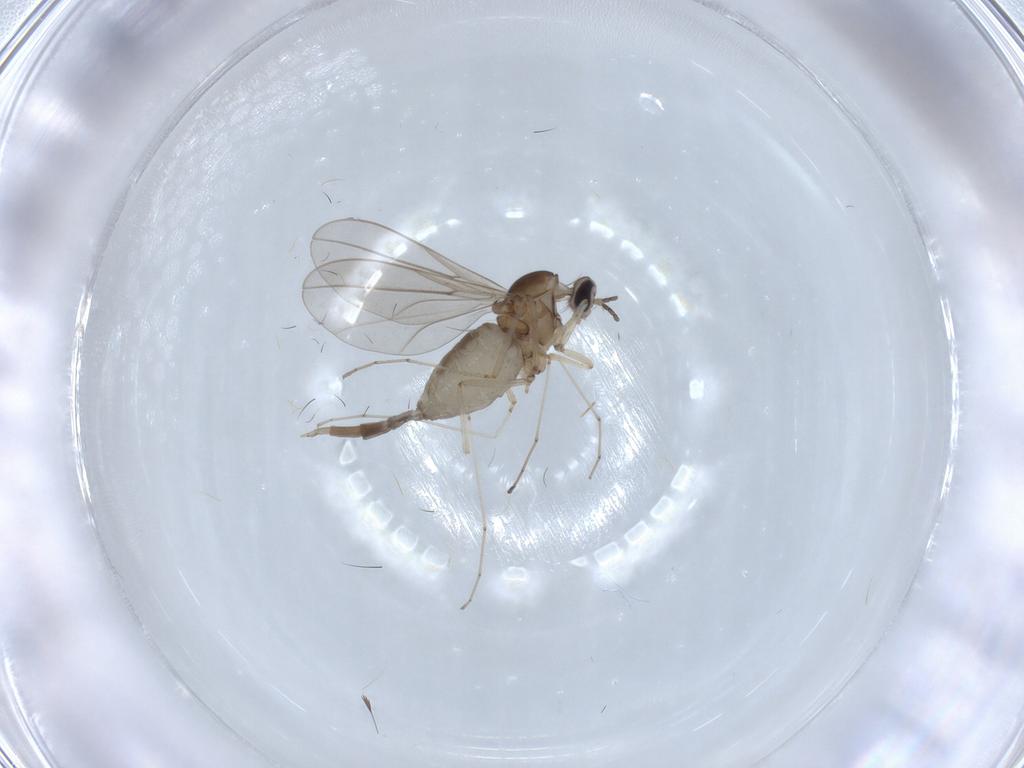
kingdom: Animalia
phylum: Arthropoda
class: Insecta
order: Diptera
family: Cecidomyiidae
